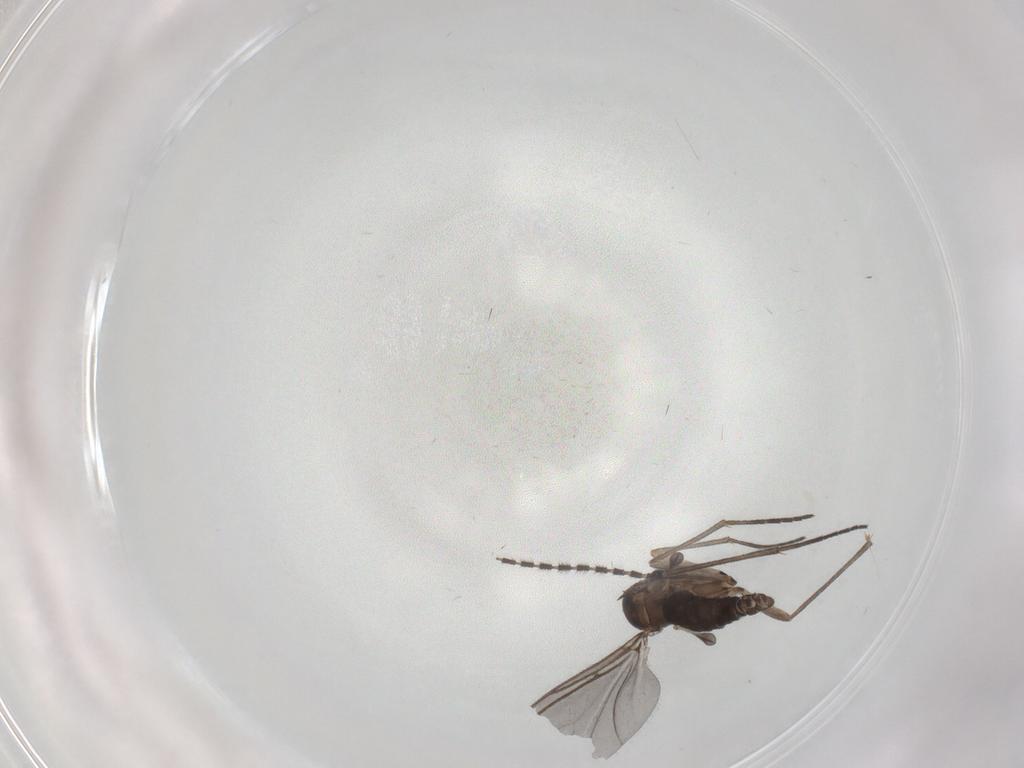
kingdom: Animalia
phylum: Arthropoda
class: Insecta
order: Diptera
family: Sciaridae
